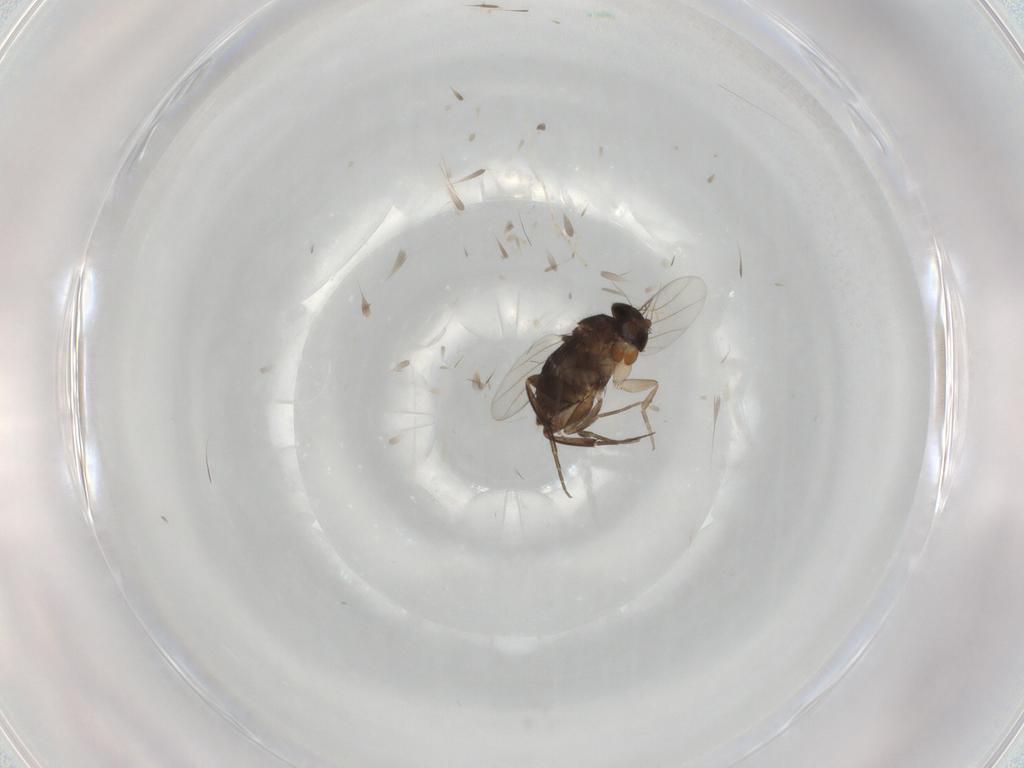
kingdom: Animalia
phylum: Arthropoda
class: Insecta
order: Diptera
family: Phoridae
